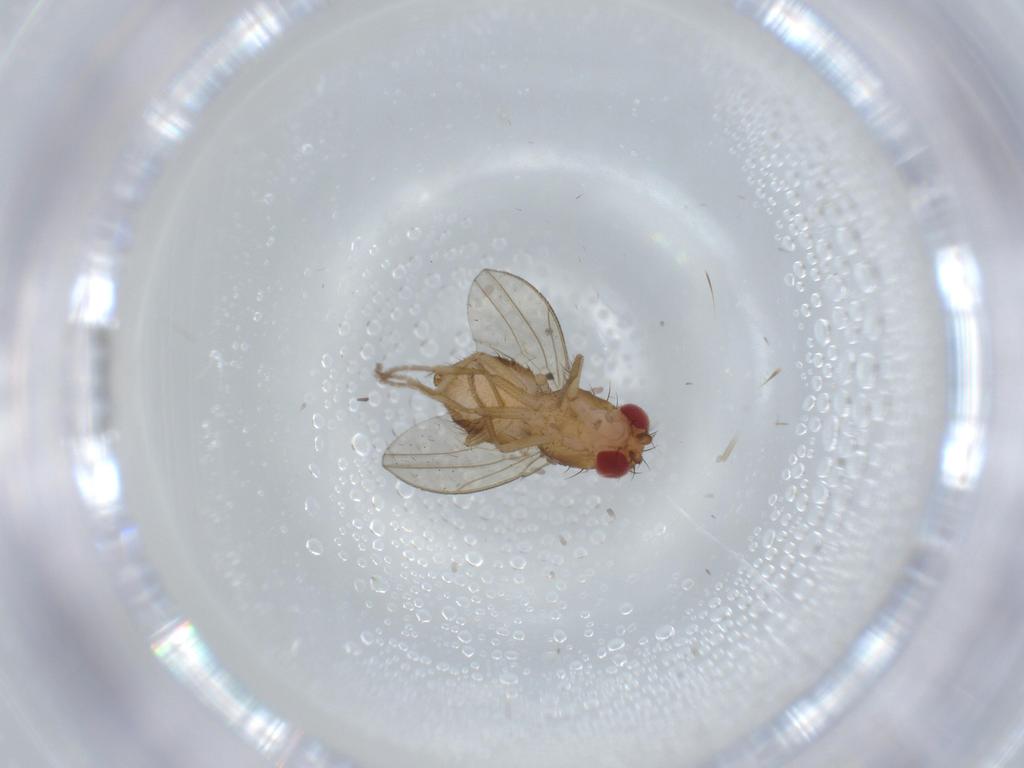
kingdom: Animalia
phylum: Arthropoda
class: Insecta
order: Diptera
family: Drosophilidae
